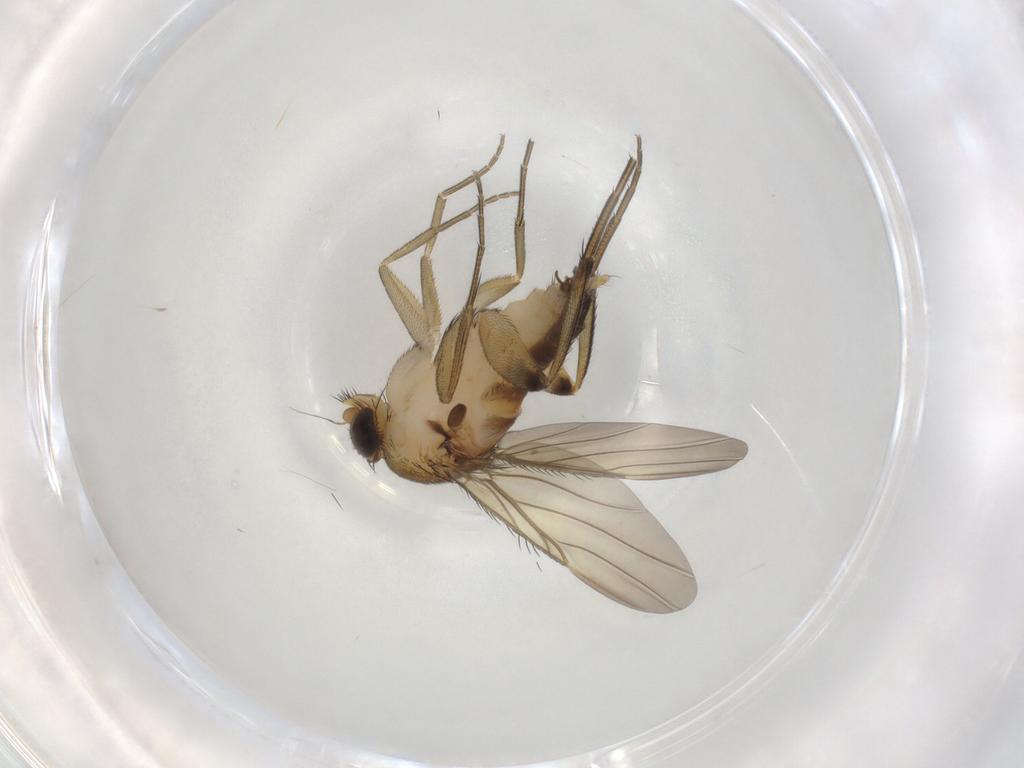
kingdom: Animalia
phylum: Arthropoda
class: Insecta
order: Diptera
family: Phoridae
